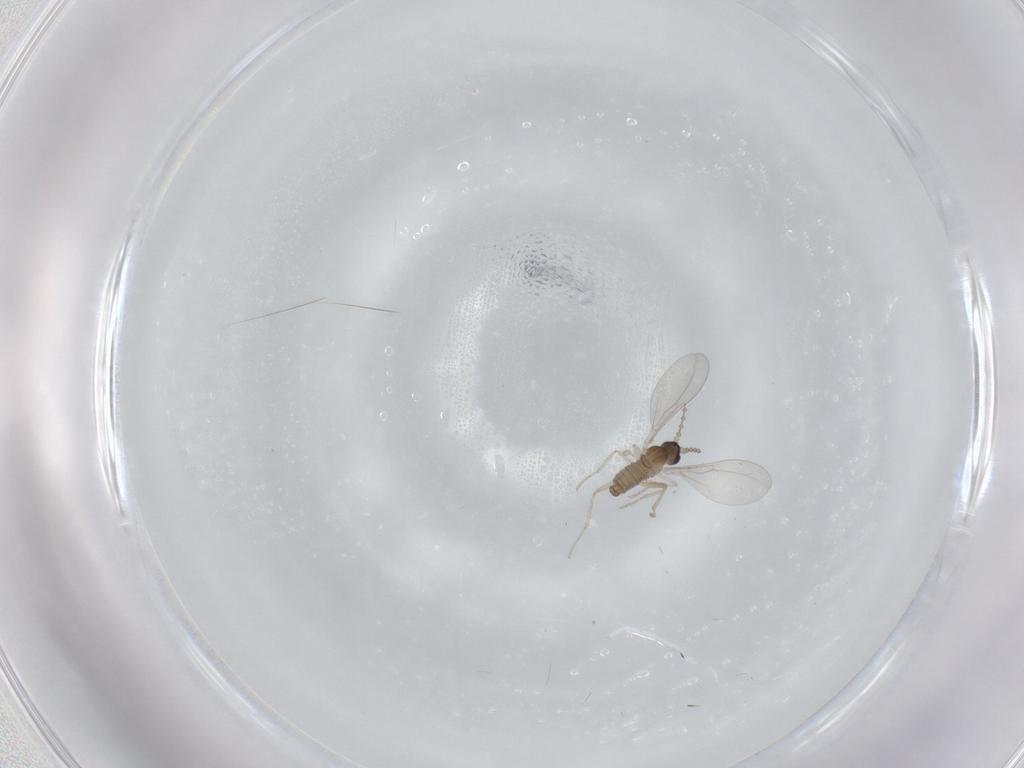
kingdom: Animalia
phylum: Arthropoda
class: Insecta
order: Diptera
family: Cecidomyiidae
